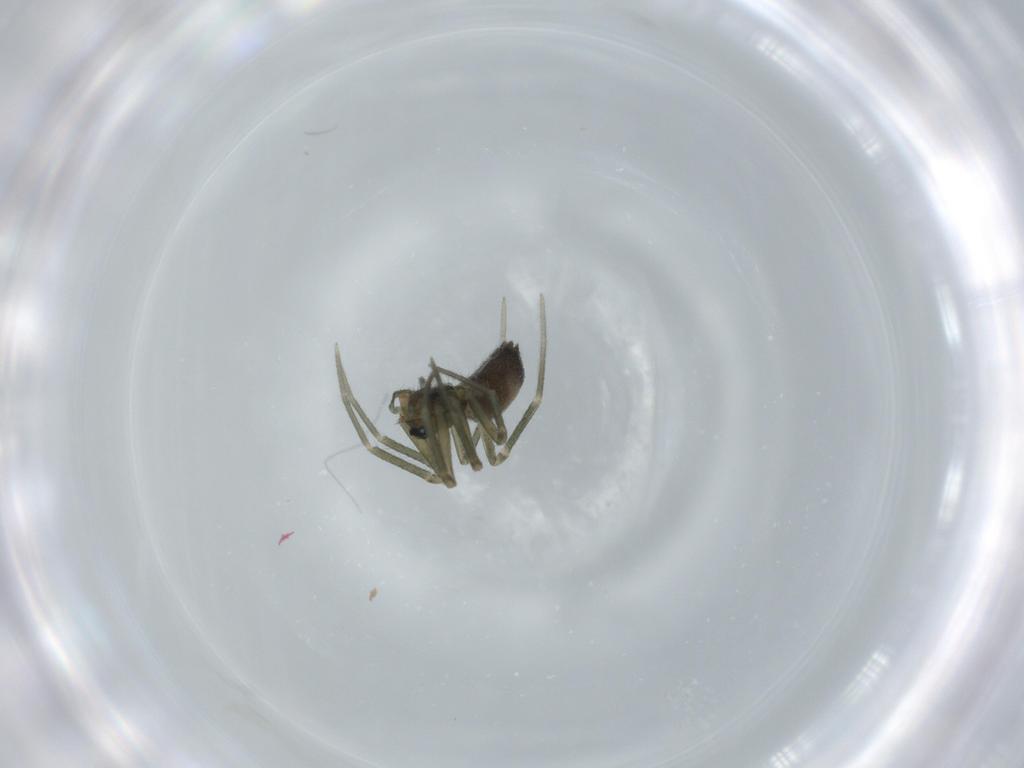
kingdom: Animalia
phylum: Arthropoda
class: Arachnida
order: Araneae
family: Linyphiidae
